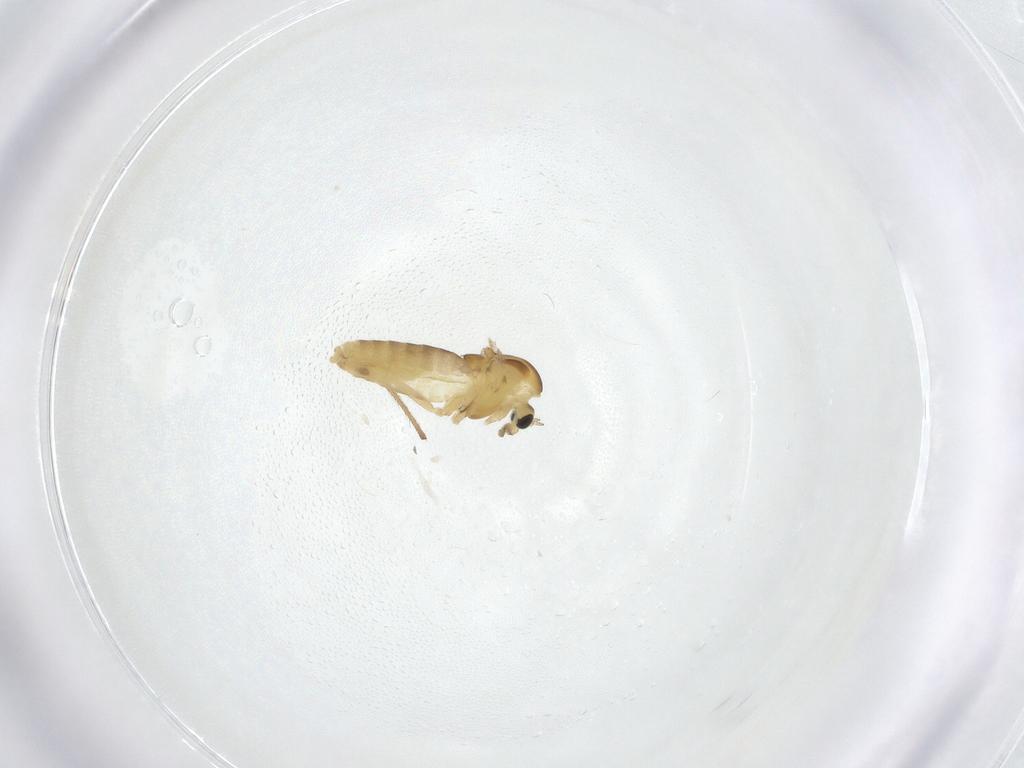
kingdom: Animalia
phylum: Arthropoda
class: Insecta
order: Diptera
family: Chironomidae
